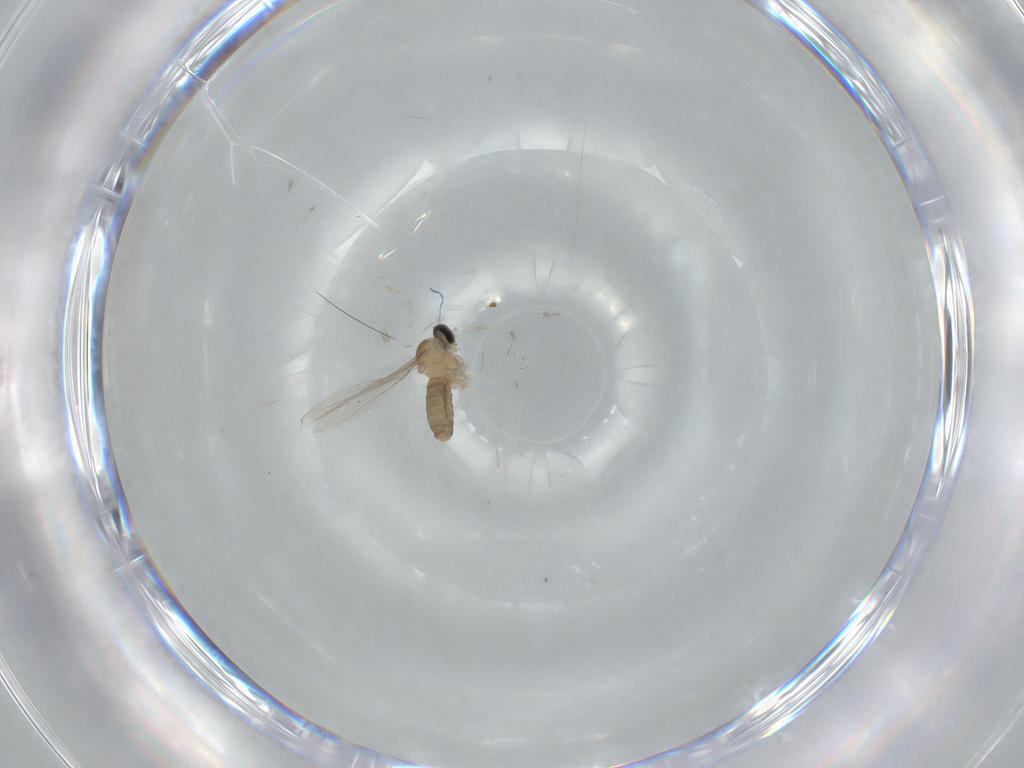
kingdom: Animalia
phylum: Arthropoda
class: Insecta
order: Diptera
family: Cecidomyiidae
